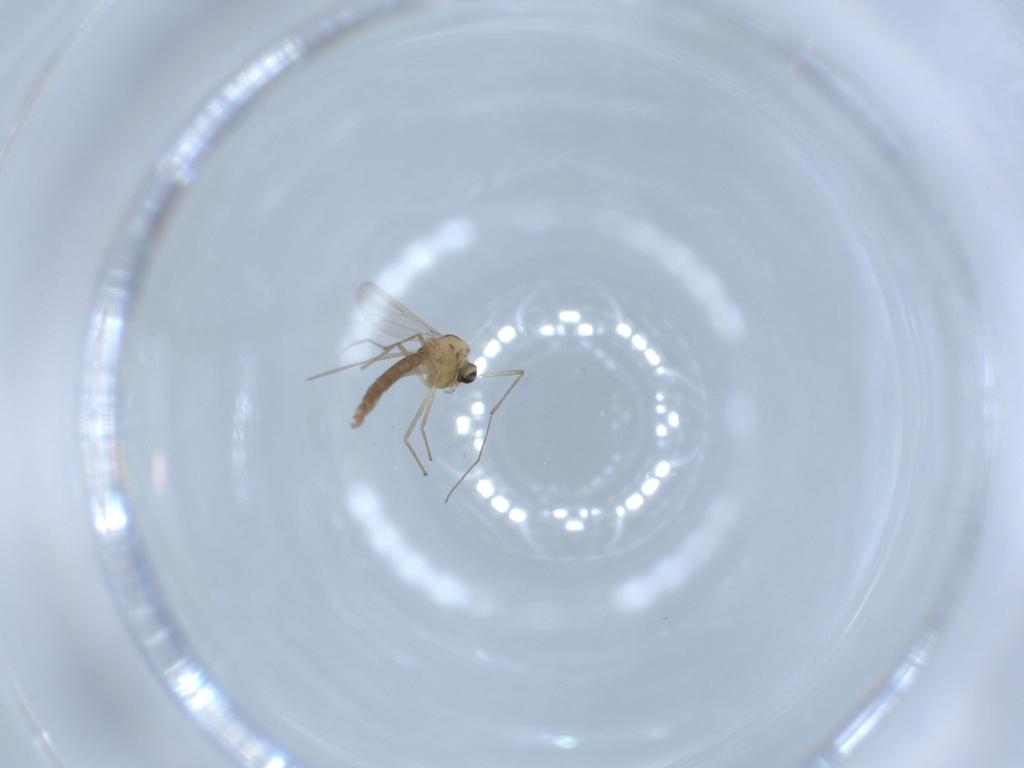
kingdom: Animalia
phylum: Arthropoda
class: Insecta
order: Diptera
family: Chironomidae
